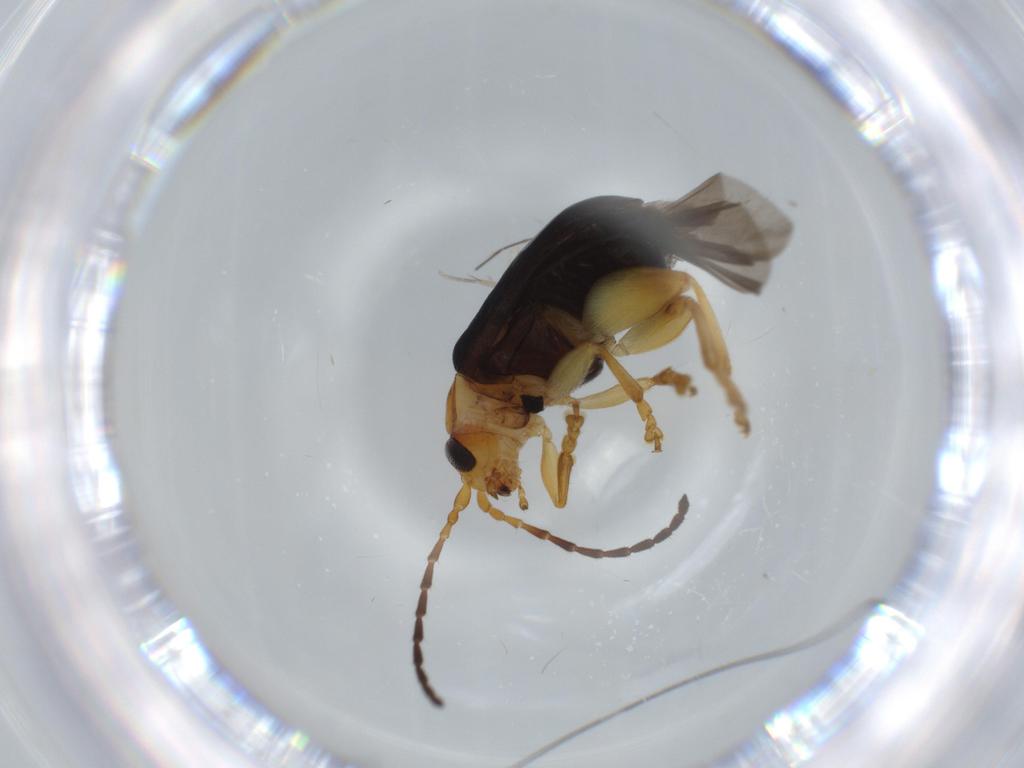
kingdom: Animalia
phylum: Arthropoda
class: Insecta
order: Coleoptera
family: Chrysomelidae
